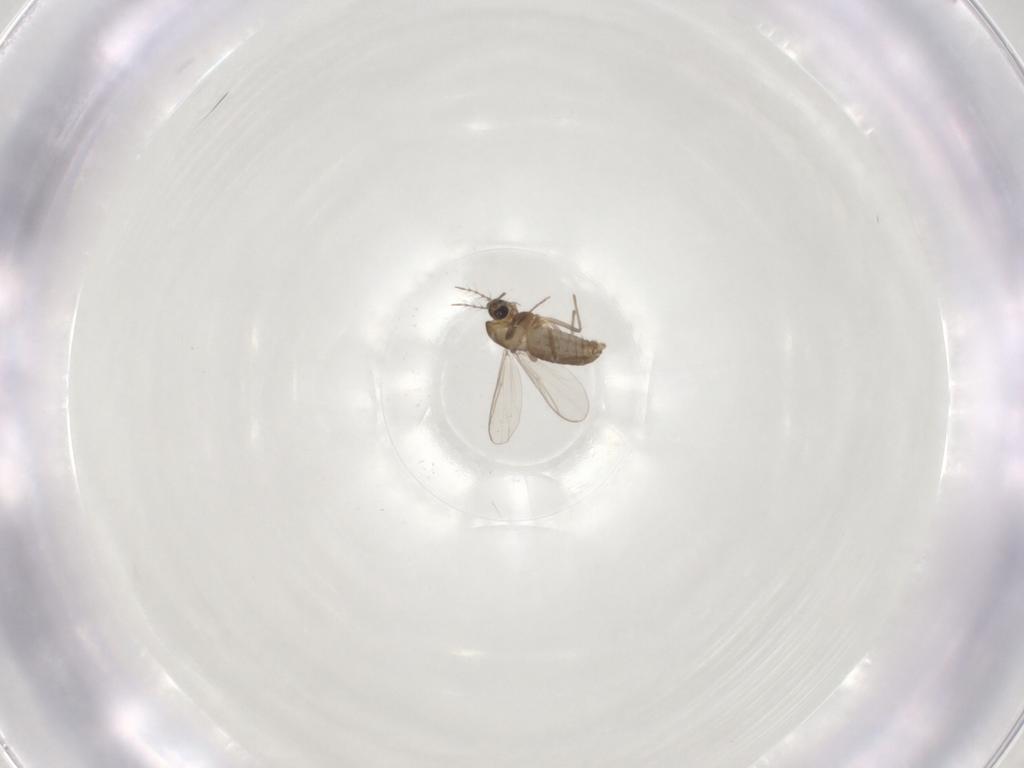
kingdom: Animalia
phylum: Arthropoda
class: Insecta
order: Diptera
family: Chironomidae
